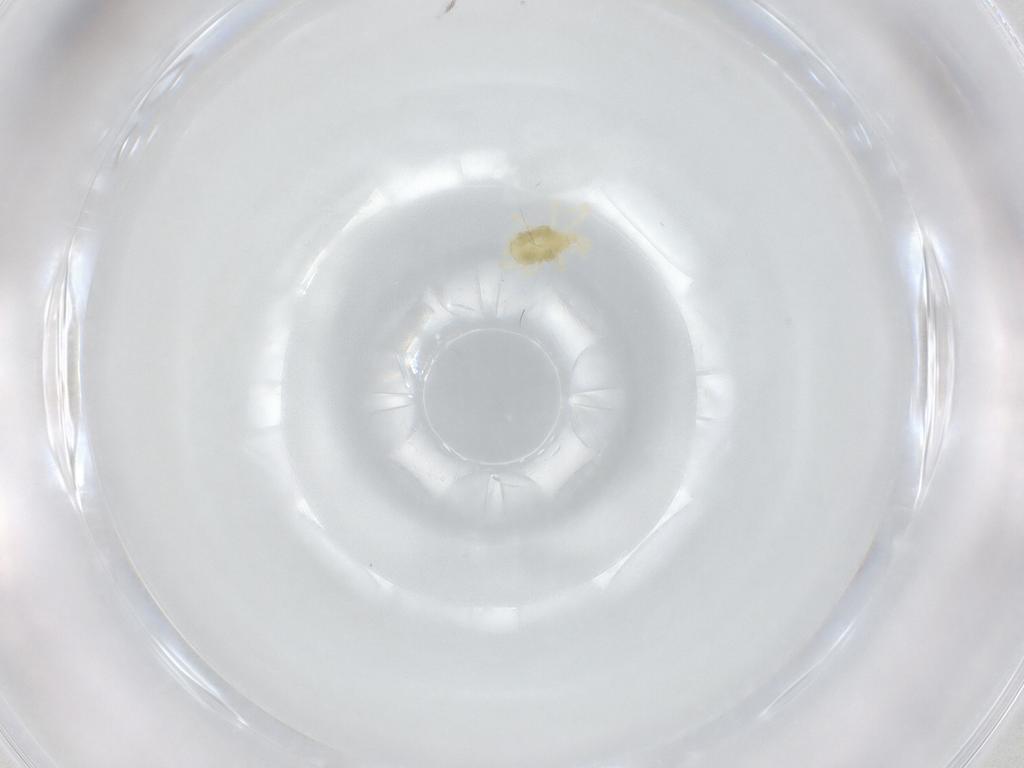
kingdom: Animalia
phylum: Arthropoda
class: Arachnida
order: Trombidiformes
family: Erythraeidae
